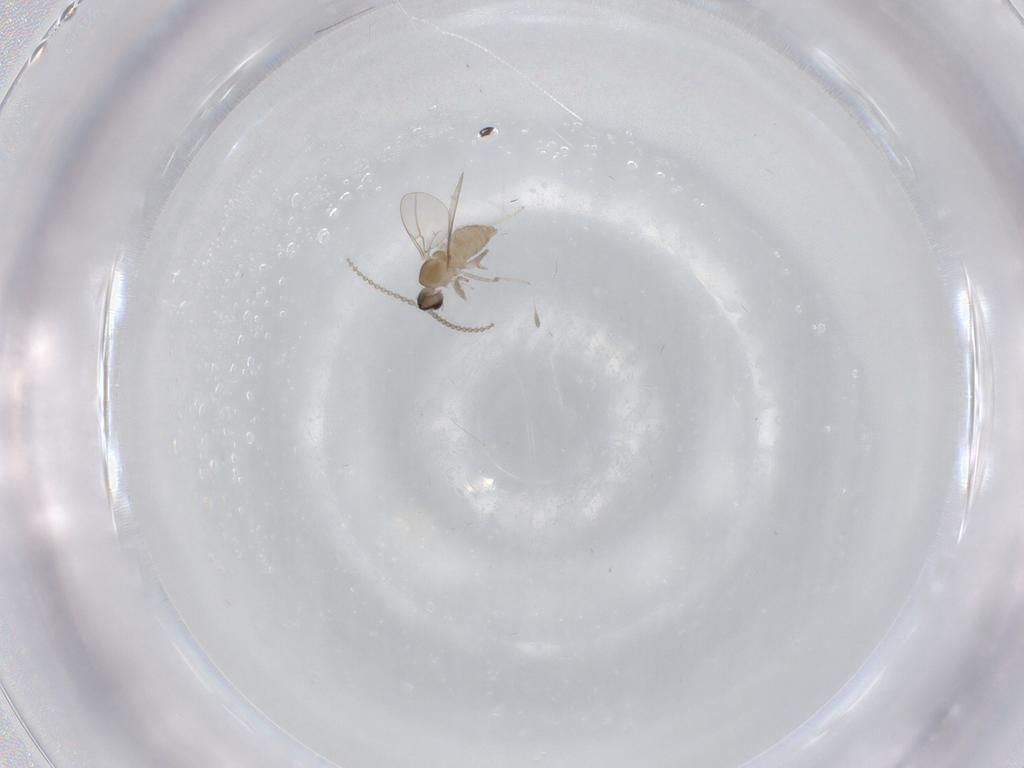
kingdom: Animalia
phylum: Arthropoda
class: Insecta
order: Diptera
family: Cecidomyiidae
